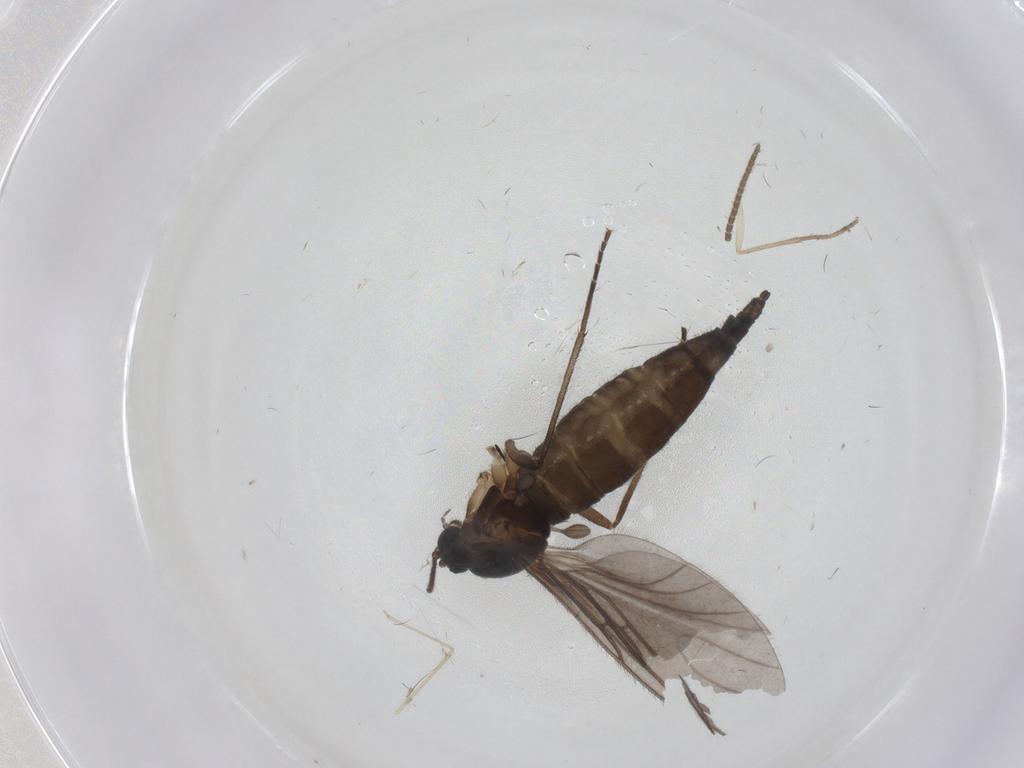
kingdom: Animalia
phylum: Arthropoda
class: Insecta
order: Diptera
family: Sciaridae
